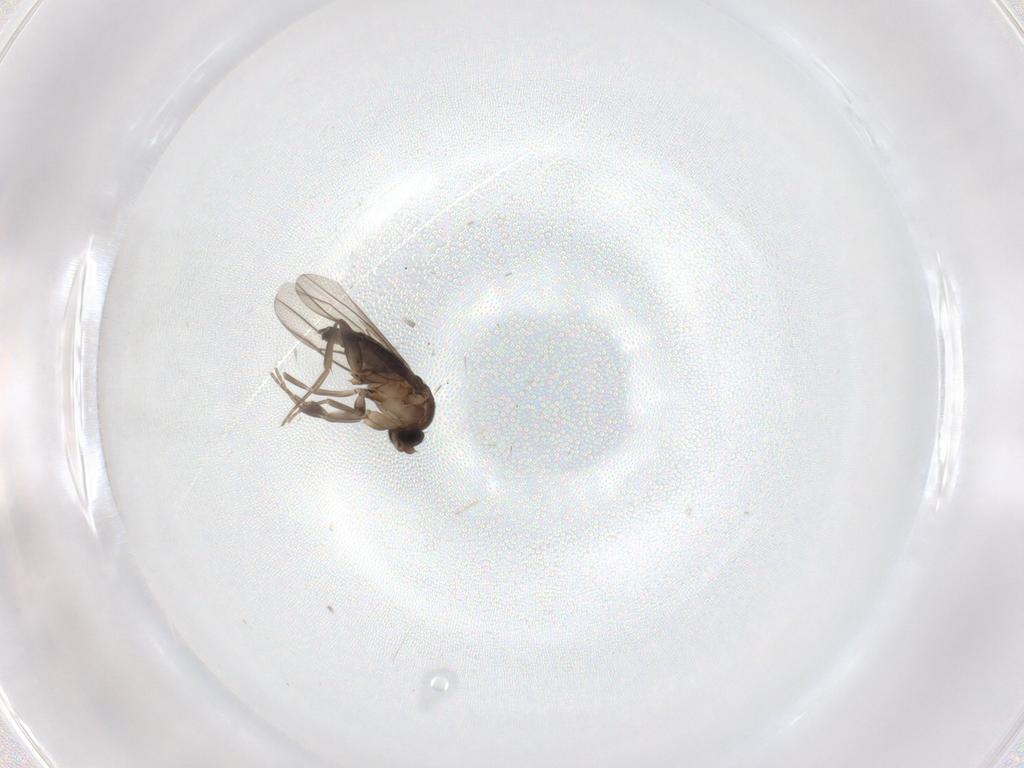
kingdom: Animalia
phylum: Arthropoda
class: Insecta
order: Diptera
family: Phoridae
